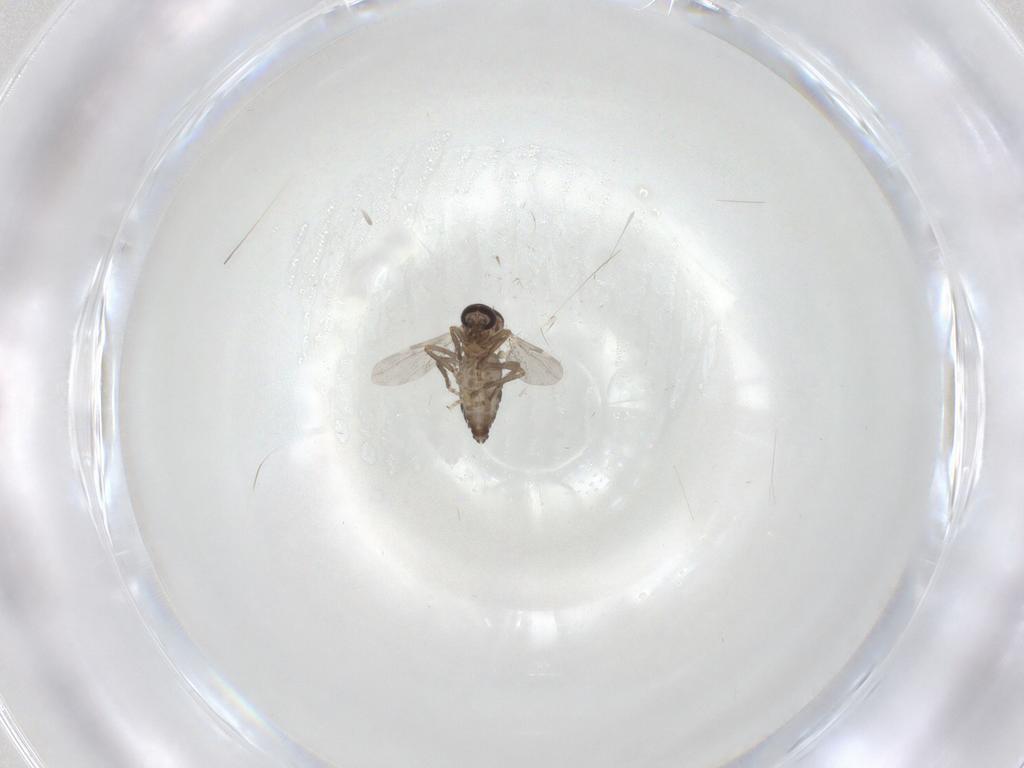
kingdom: Animalia
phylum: Arthropoda
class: Insecta
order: Diptera
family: Ceratopogonidae
